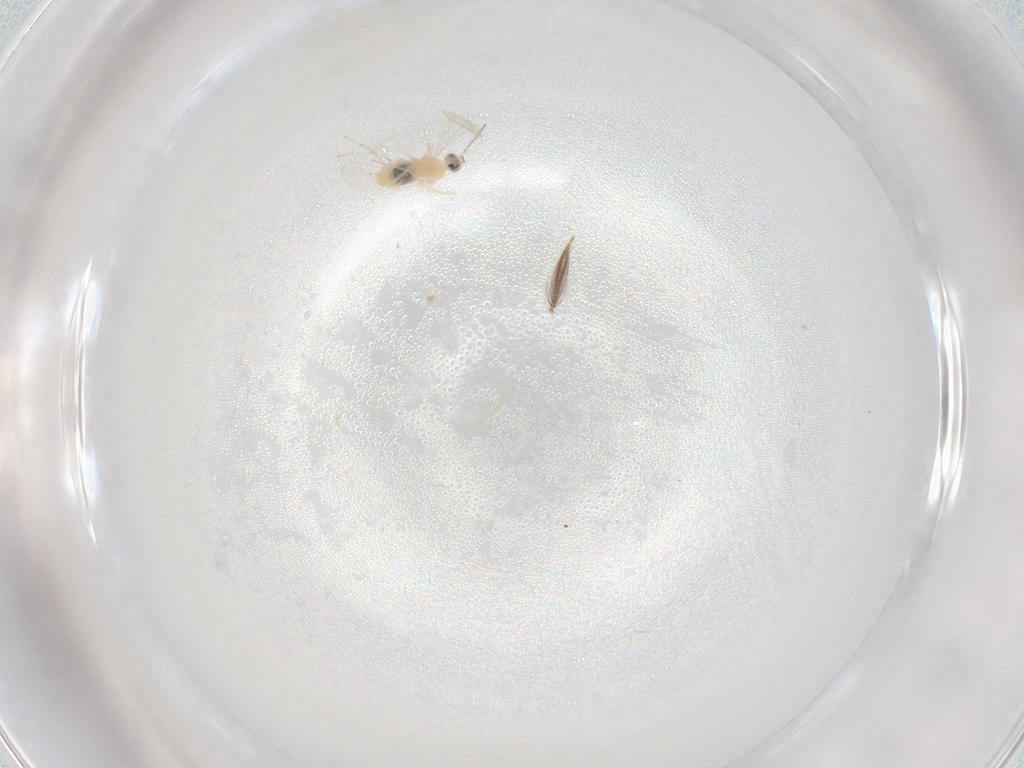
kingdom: Animalia
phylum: Arthropoda
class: Insecta
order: Diptera
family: Cecidomyiidae
